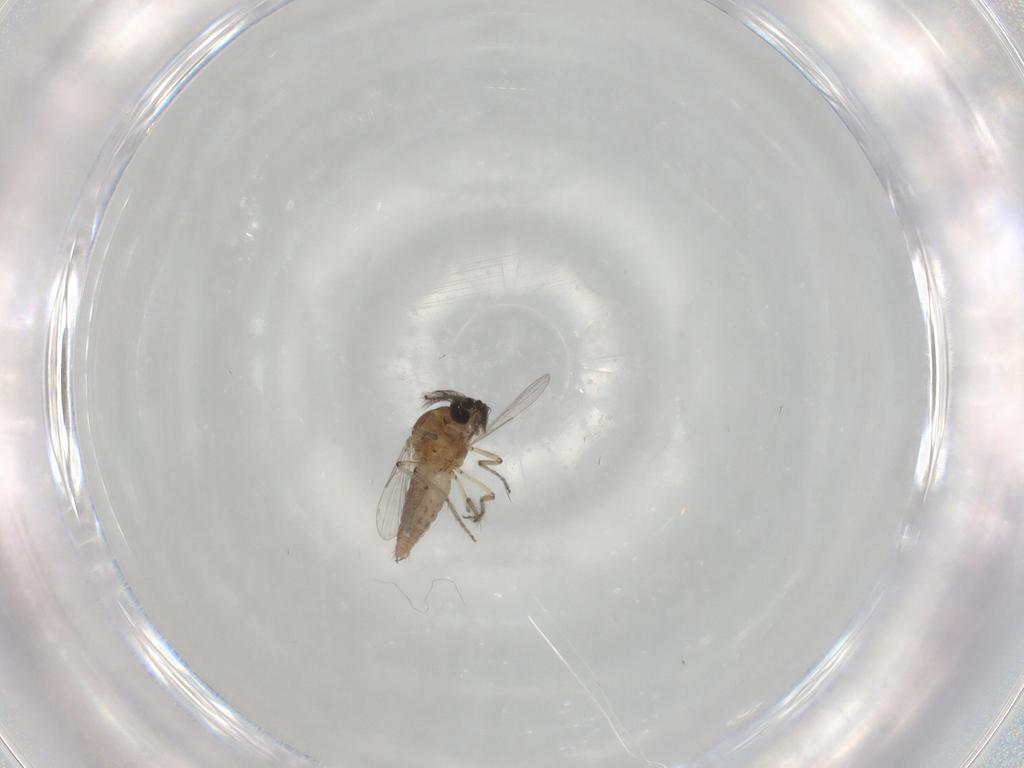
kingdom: Animalia
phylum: Arthropoda
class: Insecta
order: Diptera
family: Ceratopogonidae
